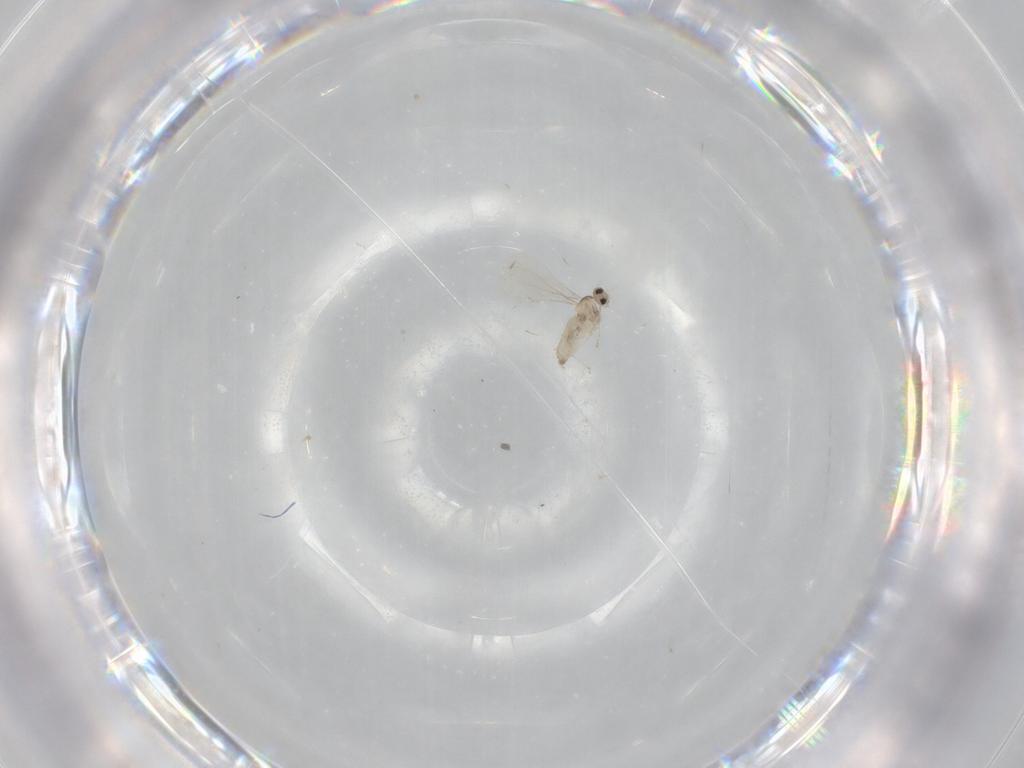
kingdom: Animalia
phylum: Arthropoda
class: Insecta
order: Diptera
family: Cecidomyiidae
